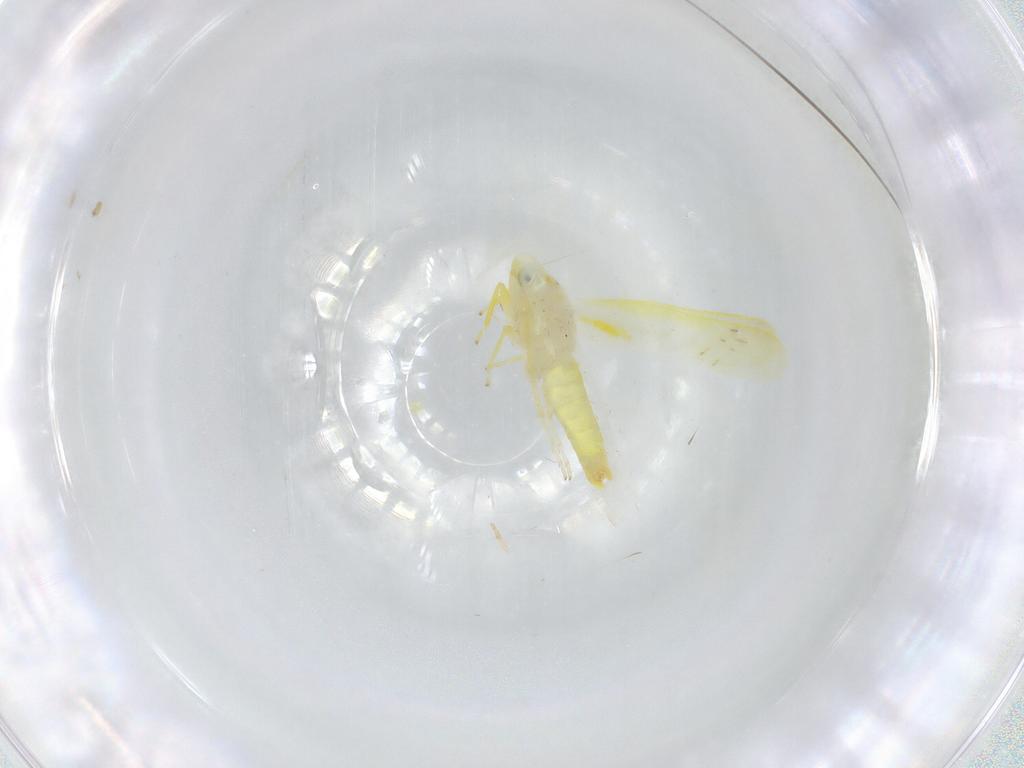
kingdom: Animalia
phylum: Arthropoda
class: Insecta
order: Hemiptera
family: Cicadellidae
